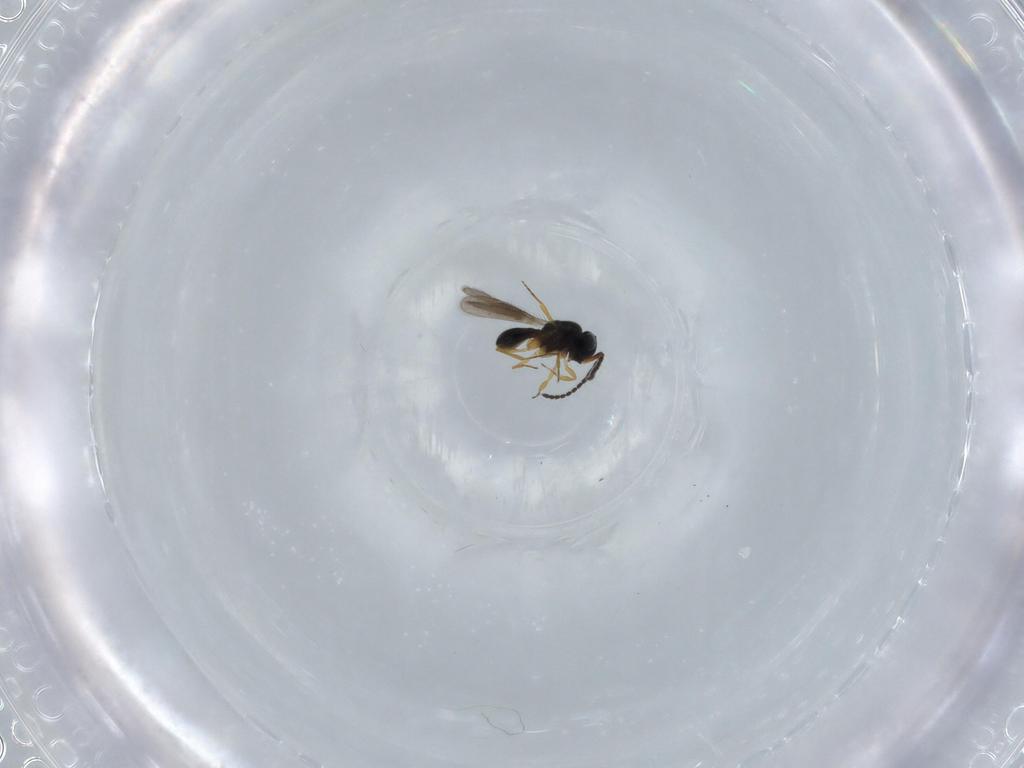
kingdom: Animalia
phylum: Arthropoda
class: Insecta
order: Hymenoptera
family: Scelionidae
